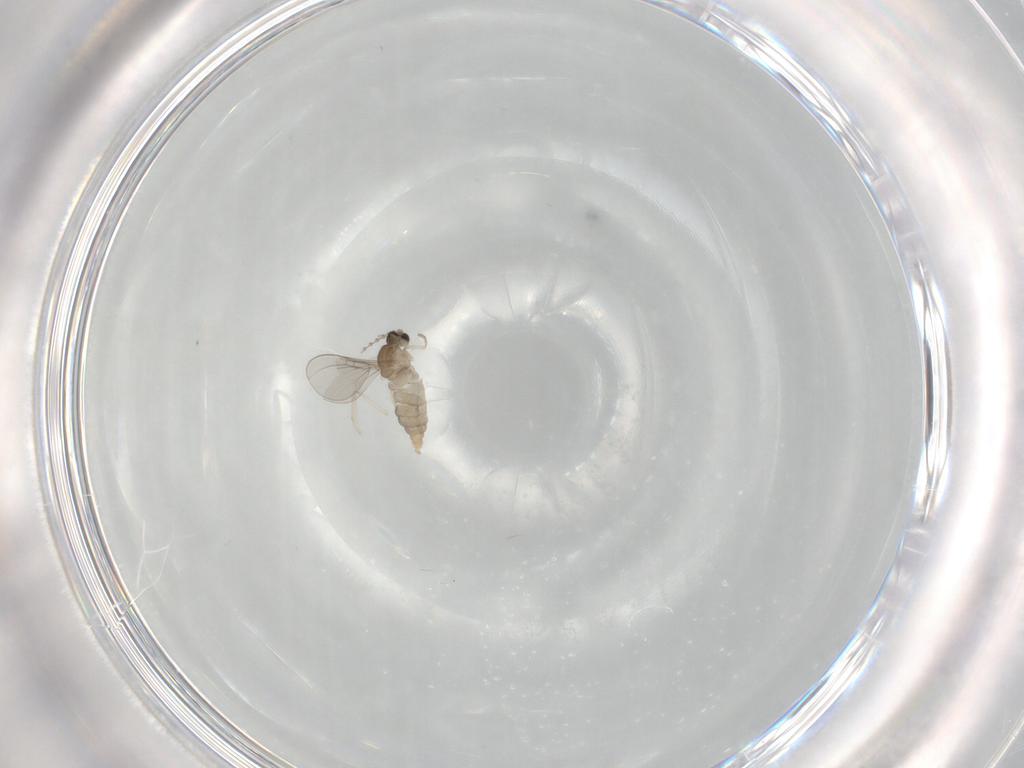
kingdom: Animalia
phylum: Arthropoda
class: Insecta
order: Diptera
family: Cecidomyiidae
